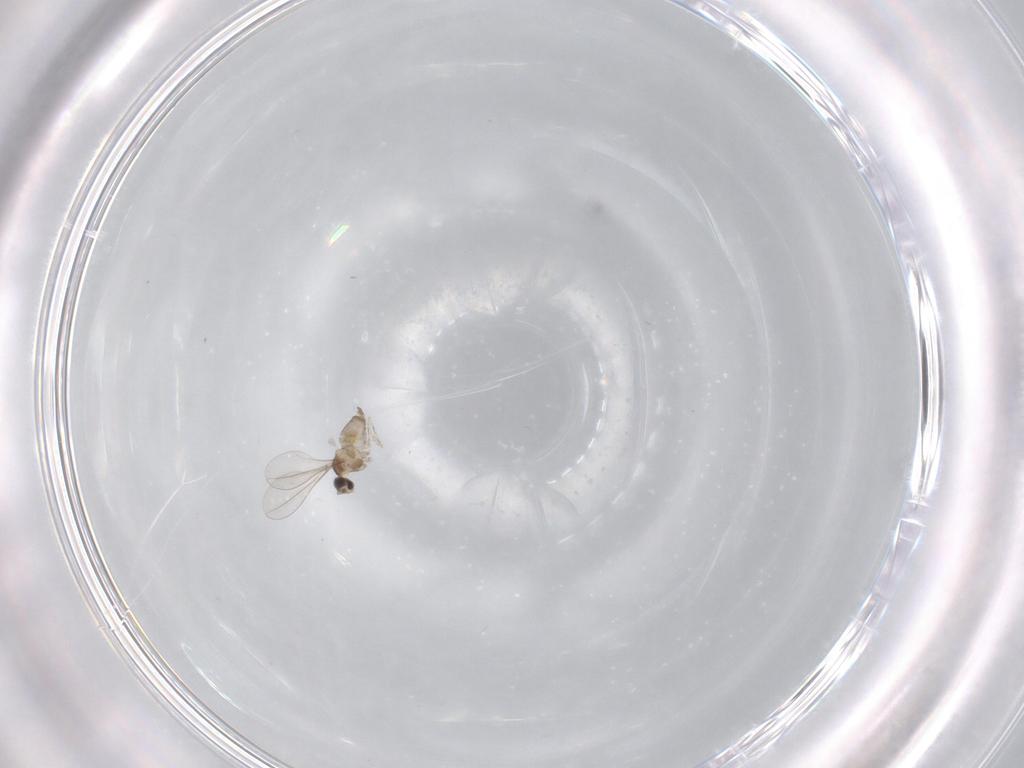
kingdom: Animalia
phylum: Arthropoda
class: Insecta
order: Diptera
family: Cecidomyiidae
